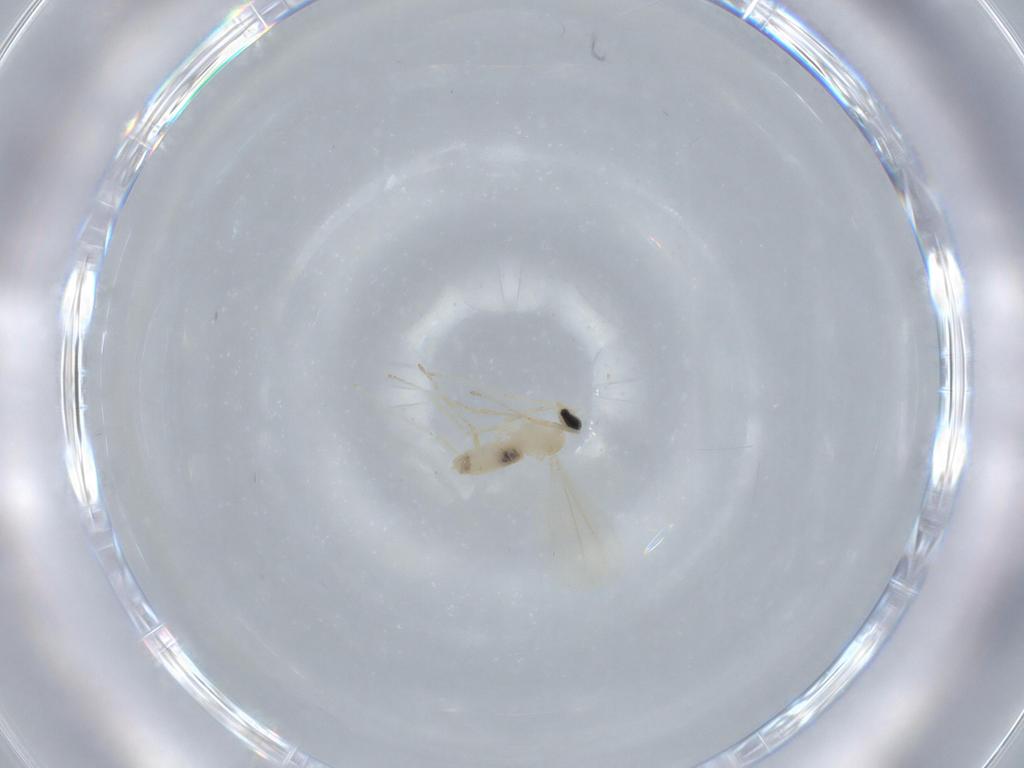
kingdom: Animalia
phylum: Arthropoda
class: Insecta
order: Diptera
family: Cecidomyiidae
